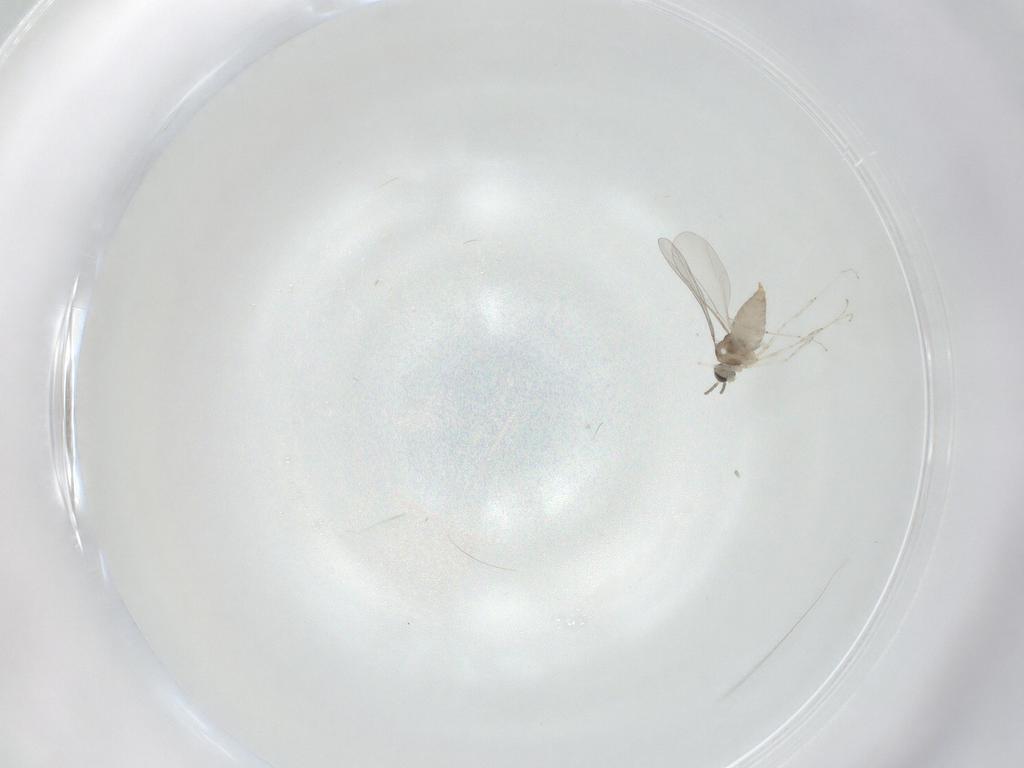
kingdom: Animalia
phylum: Arthropoda
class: Insecta
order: Diptera
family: Cecidomyiidae
